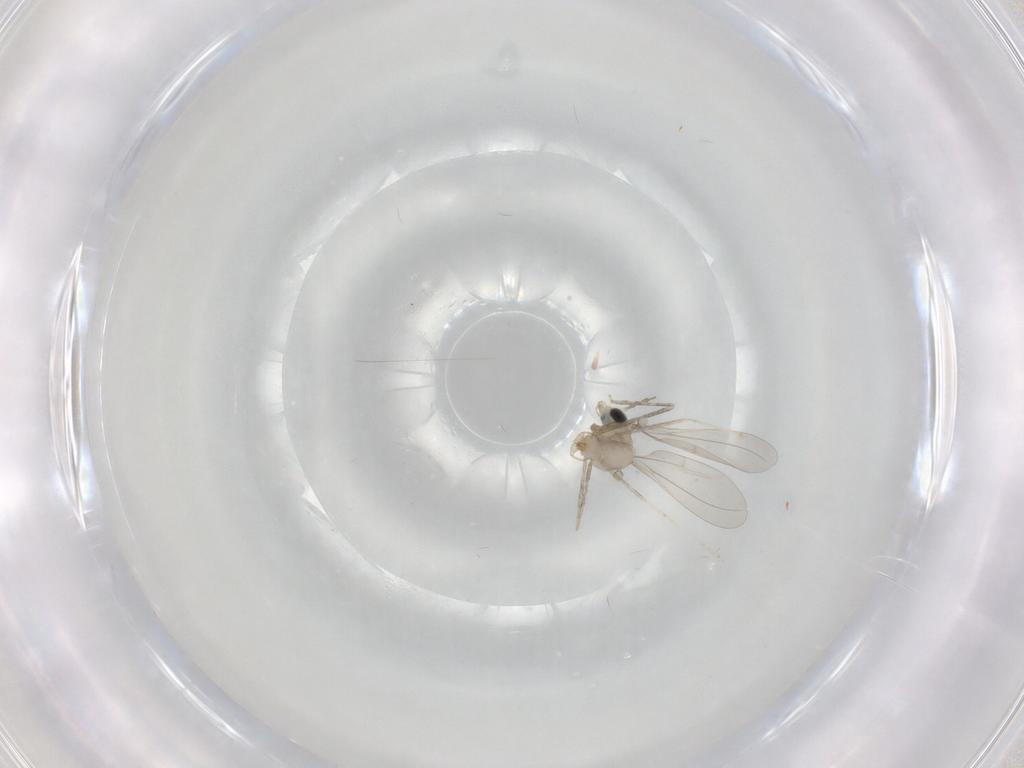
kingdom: Animalia
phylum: Arthropoda
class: Insecta
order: Diptera
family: Cecidomyiidae
